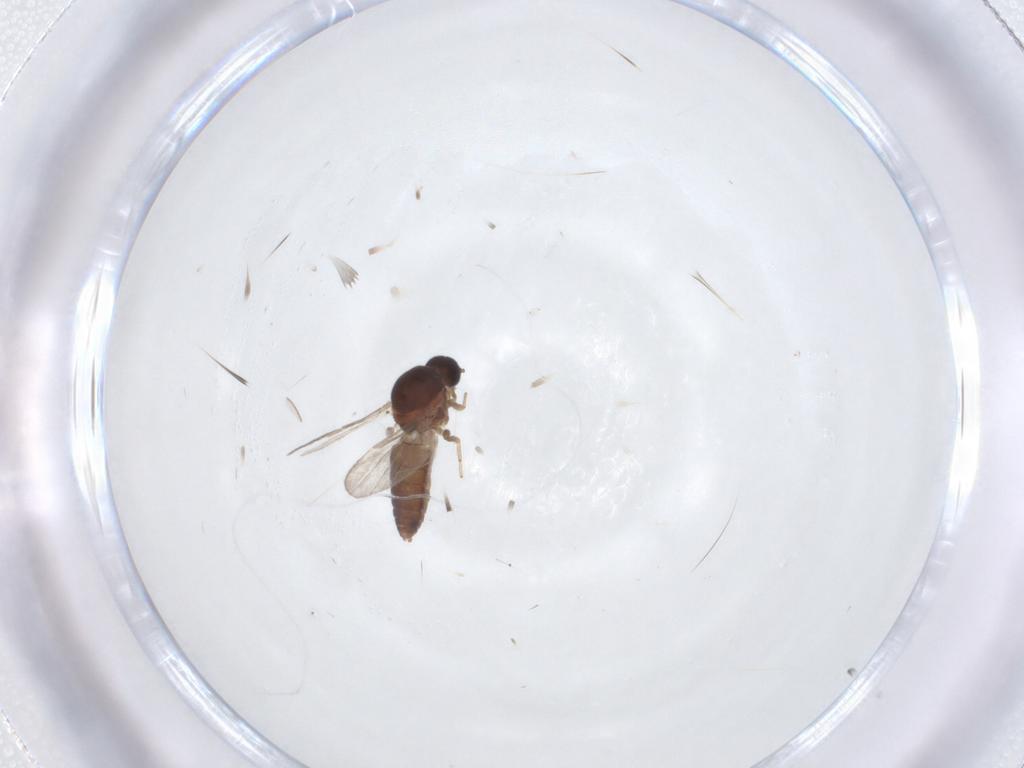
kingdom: Animalia
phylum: Arthropoda
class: Insecta
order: Diptera
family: Ceratopogonidae
